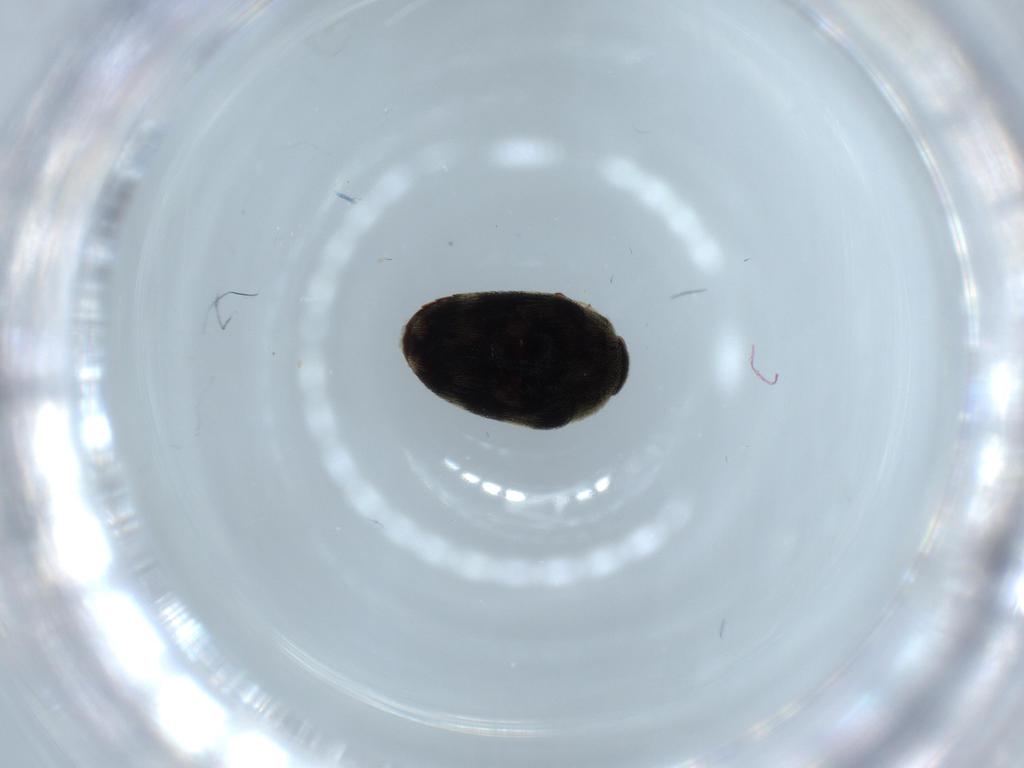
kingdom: Animalia
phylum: Arthropoda
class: Insecta
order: Coleoptera
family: Dermestidae
